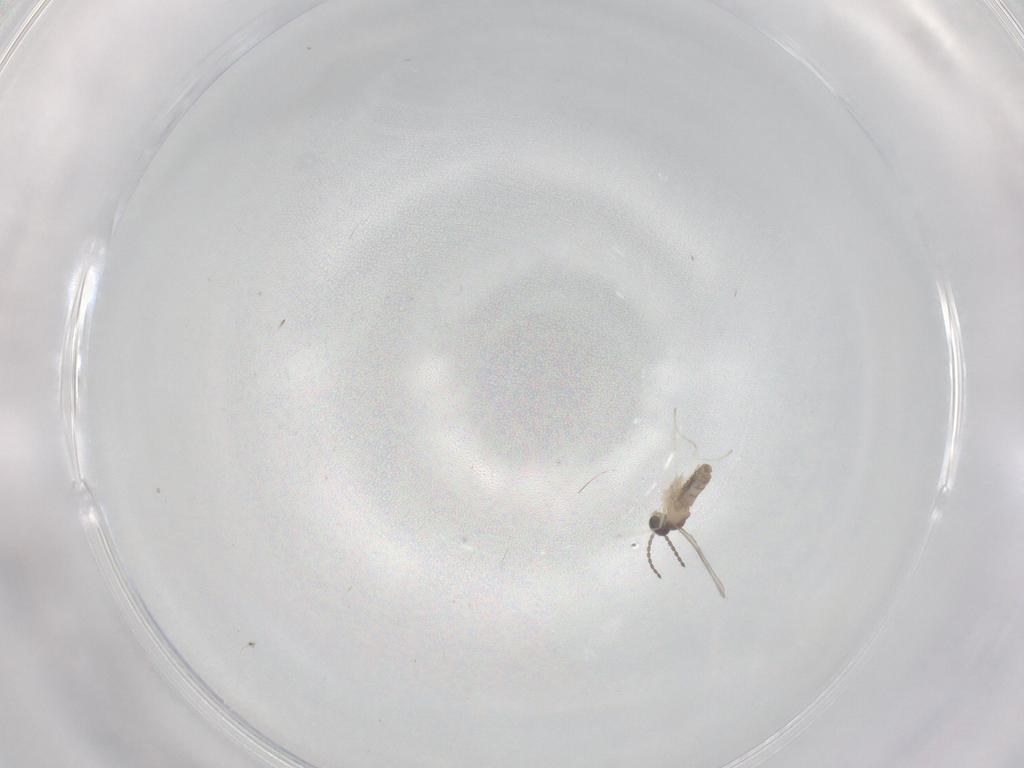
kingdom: Animalia
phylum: Arthropoda
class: Insecta
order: Diptera
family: Cecidomyiidae
